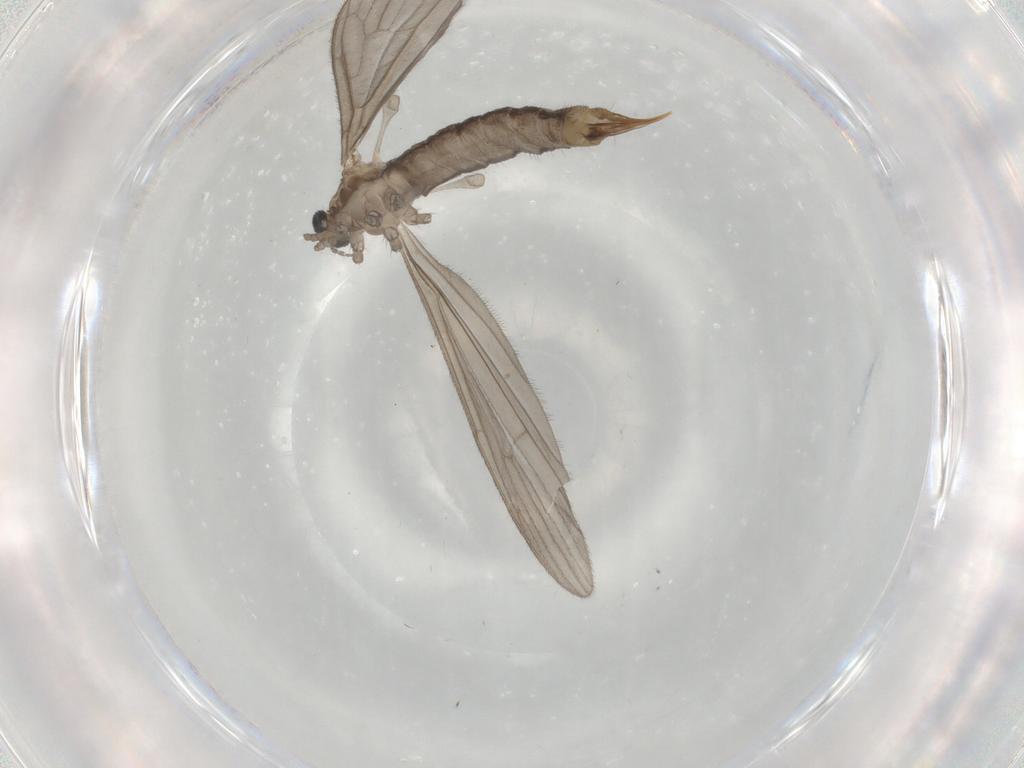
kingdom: Animalia
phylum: Arthropoda
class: Insecta
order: Diptera
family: Limoniidae
